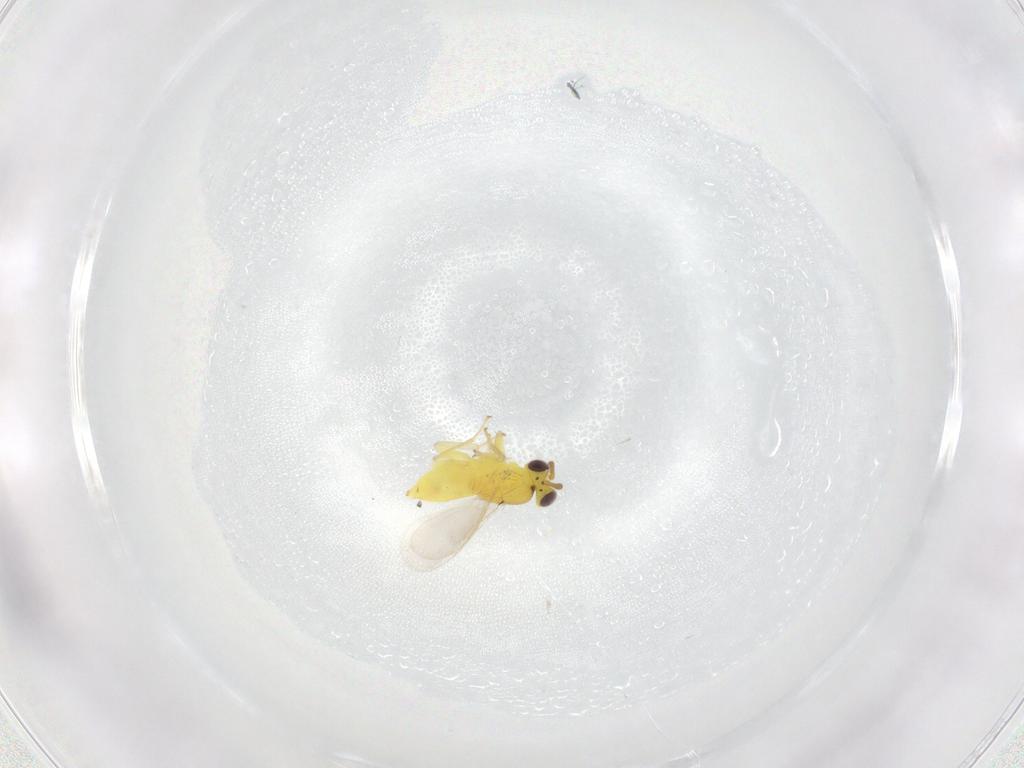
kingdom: Animalia
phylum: Arthropoda
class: Insecta
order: Hymenoptera
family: Aphelinidae
